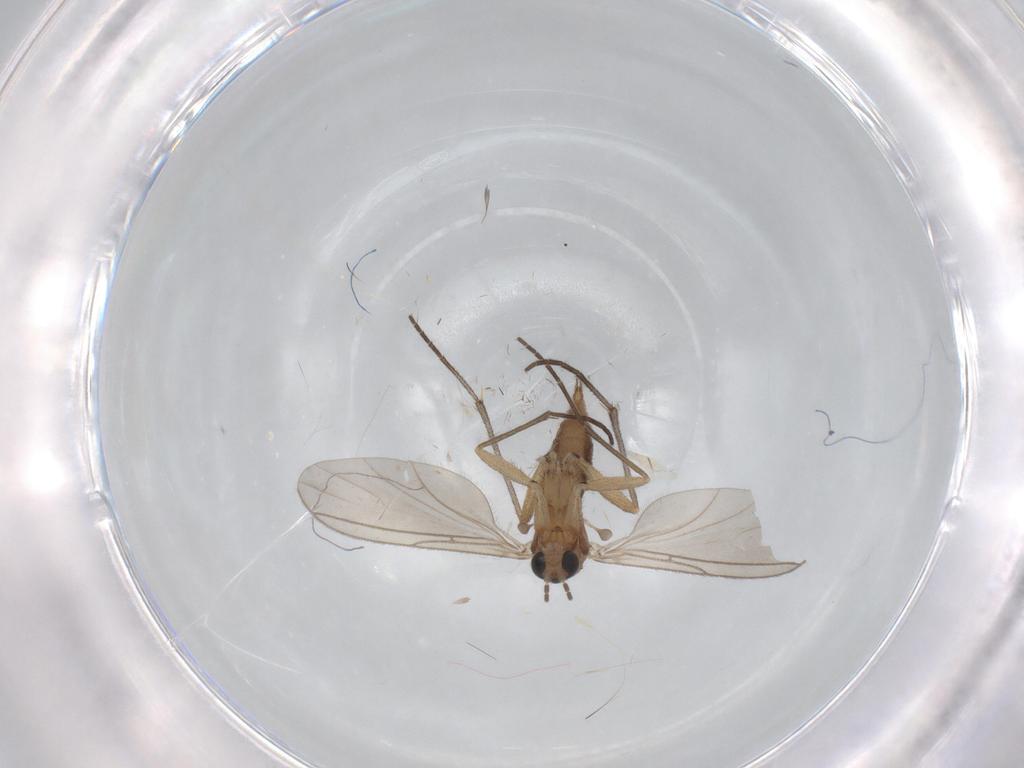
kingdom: Animalia
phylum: Arthropoda
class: Insecta
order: Diptera
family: Sciaridae
